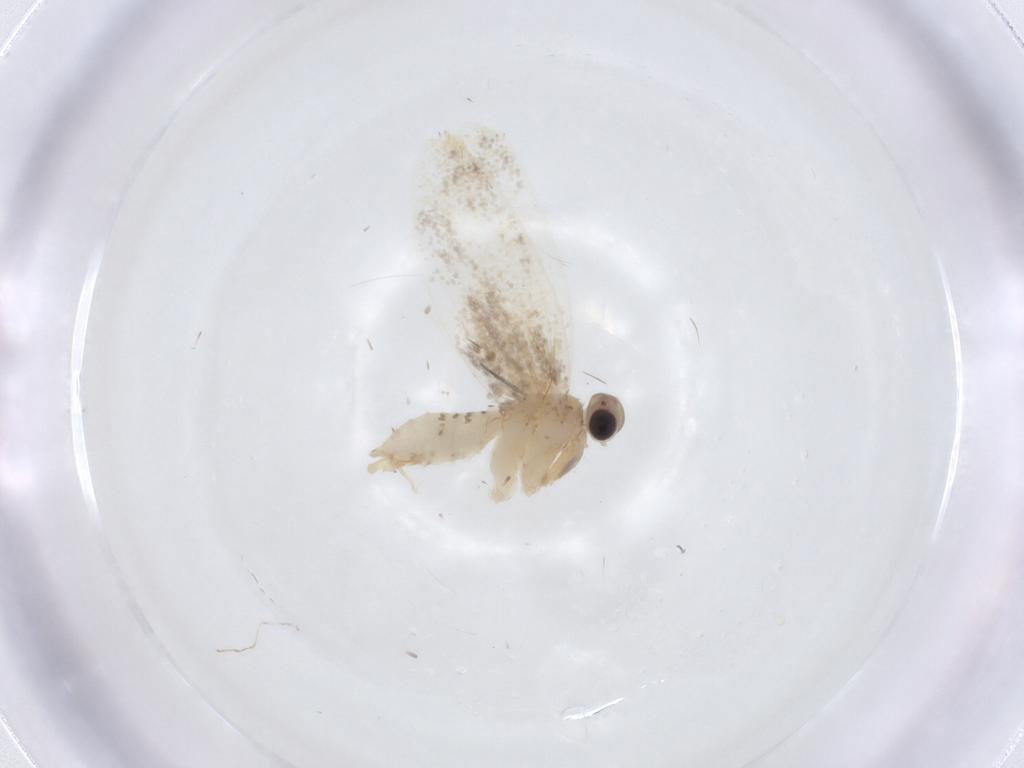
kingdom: Animalia
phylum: Arthropoda
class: Insecta
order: Lepidoptera
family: Psychidae
